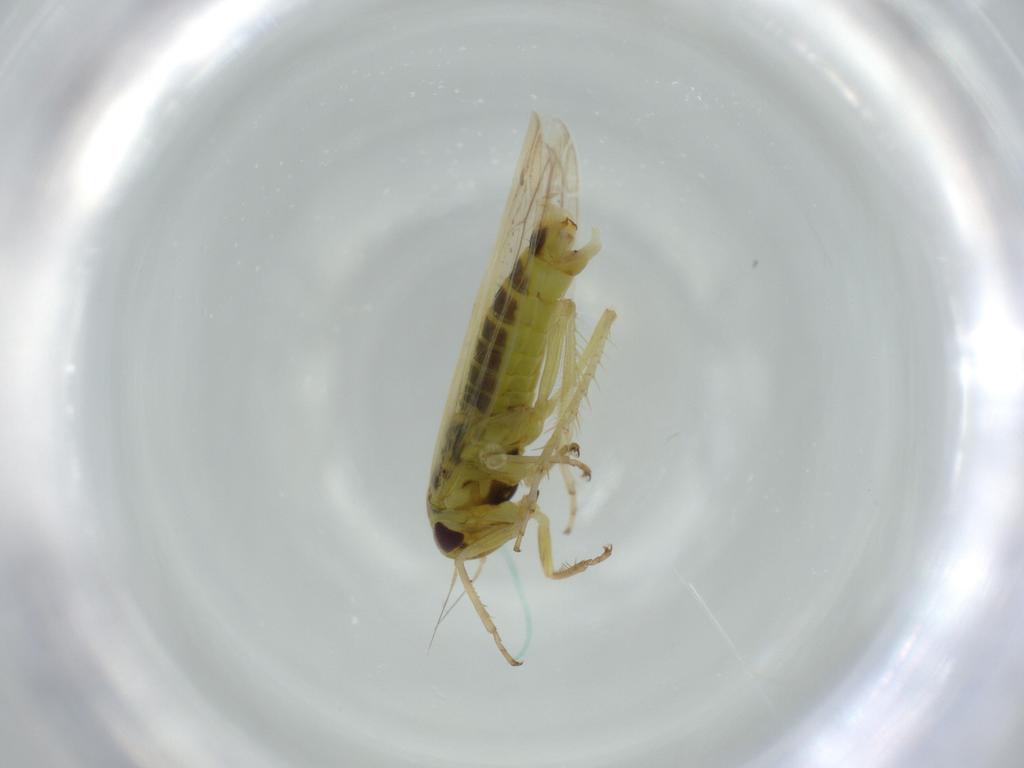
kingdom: Animalia
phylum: Arthropoda
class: Insecta
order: Hemiptera
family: Cicadellidae
